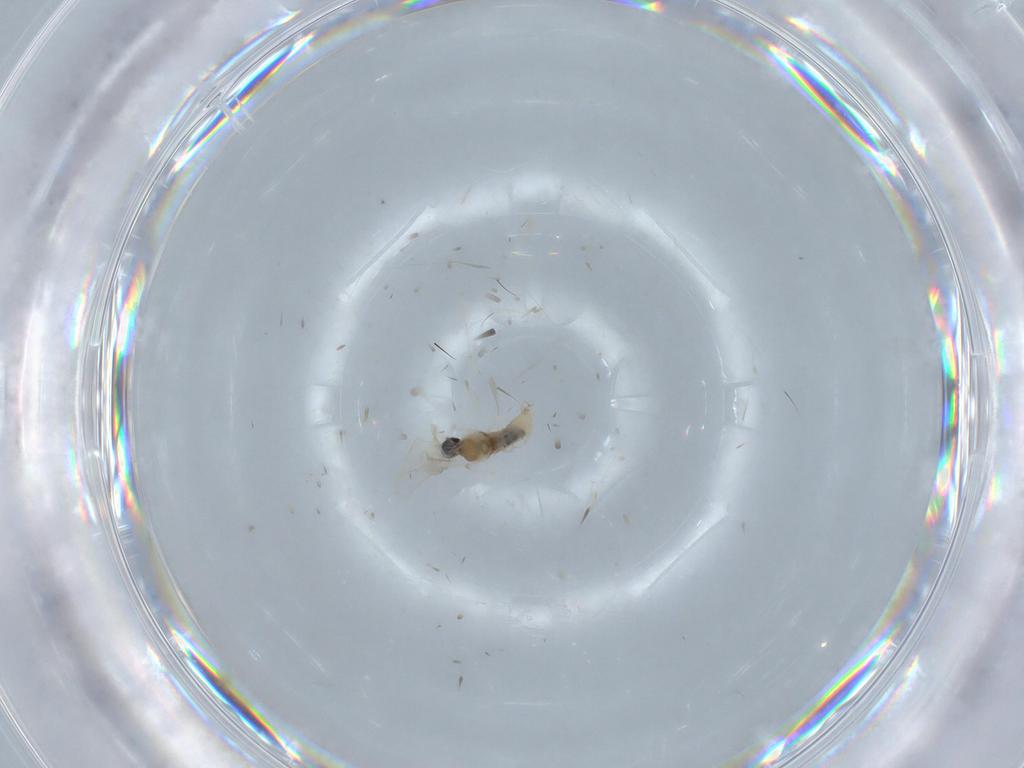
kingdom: Animalia
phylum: Arthropoda
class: Insecta
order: Diptera
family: Cecidomyiidae
